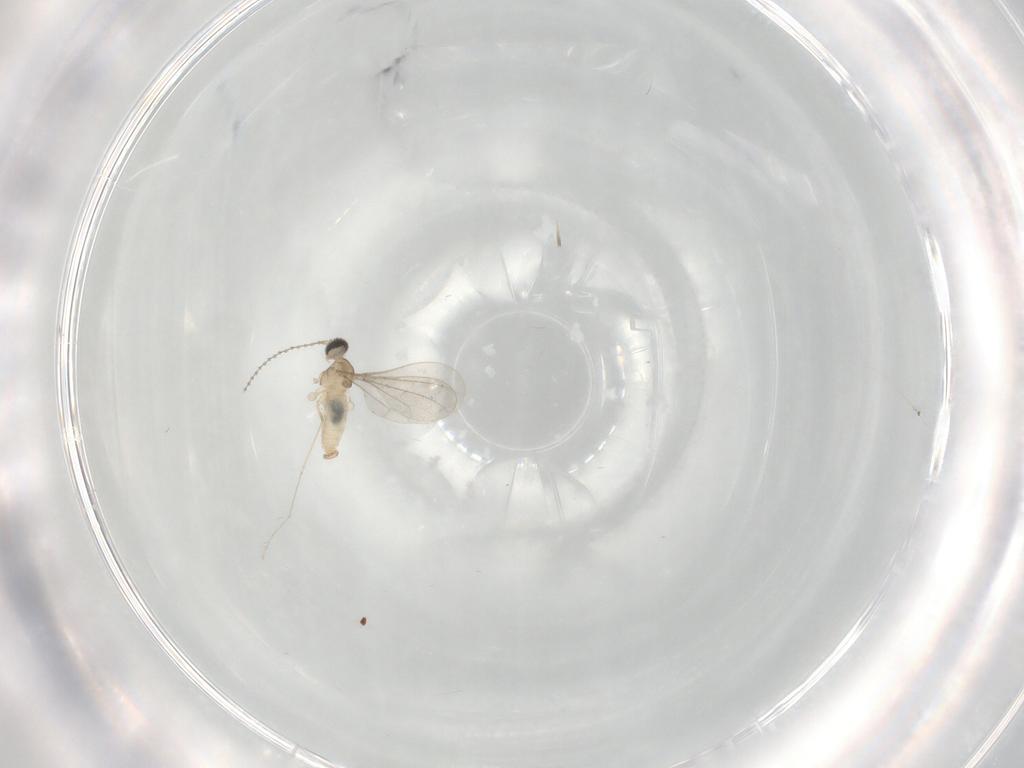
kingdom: Animalia
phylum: Arthropoda
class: Insecta
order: Diptera
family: Cecidomyiidae
